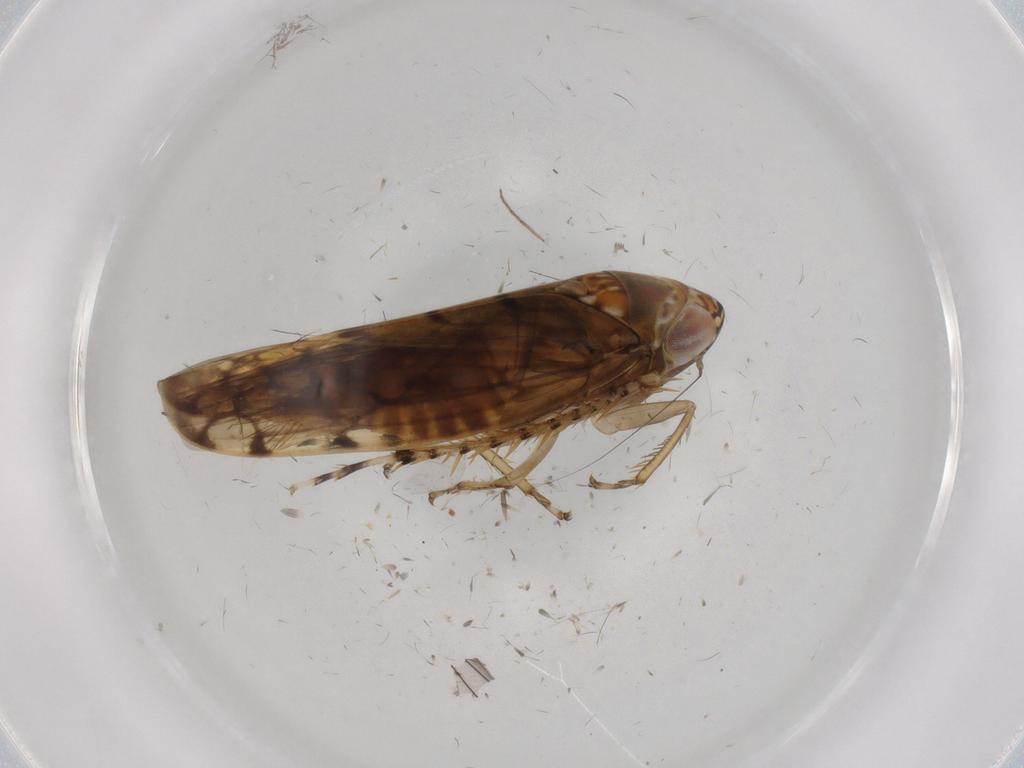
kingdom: Animalia
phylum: Arthropoda
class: Insecta
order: Hemiptera
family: Cicadellidae
